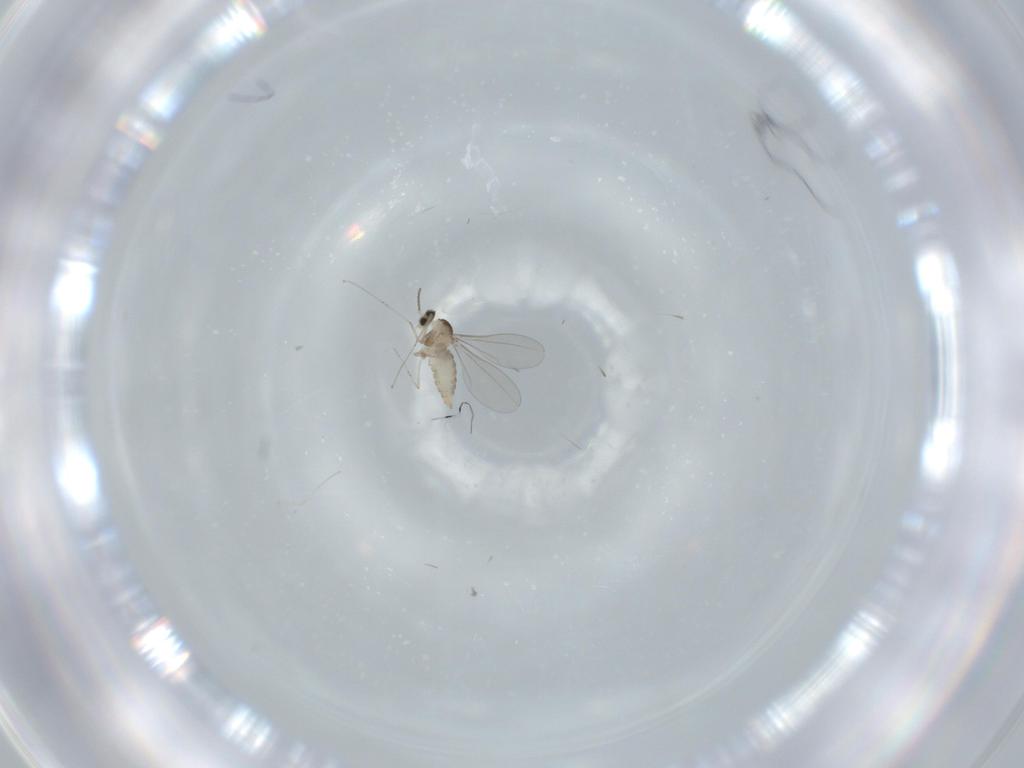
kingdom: Animalia
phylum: Arthropoda
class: Insecta
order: Diptera
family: Cecidomyiidae
